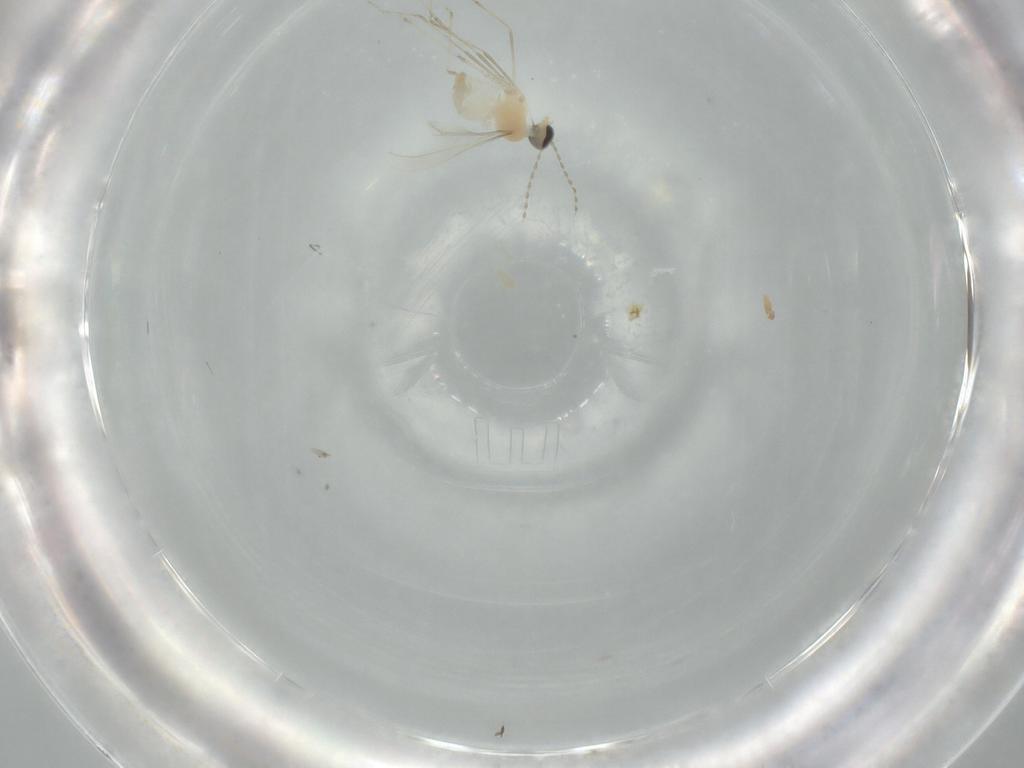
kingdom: Animalia
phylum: Arthropoda
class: Insecta
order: Diptera
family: Cecidomyiidae
